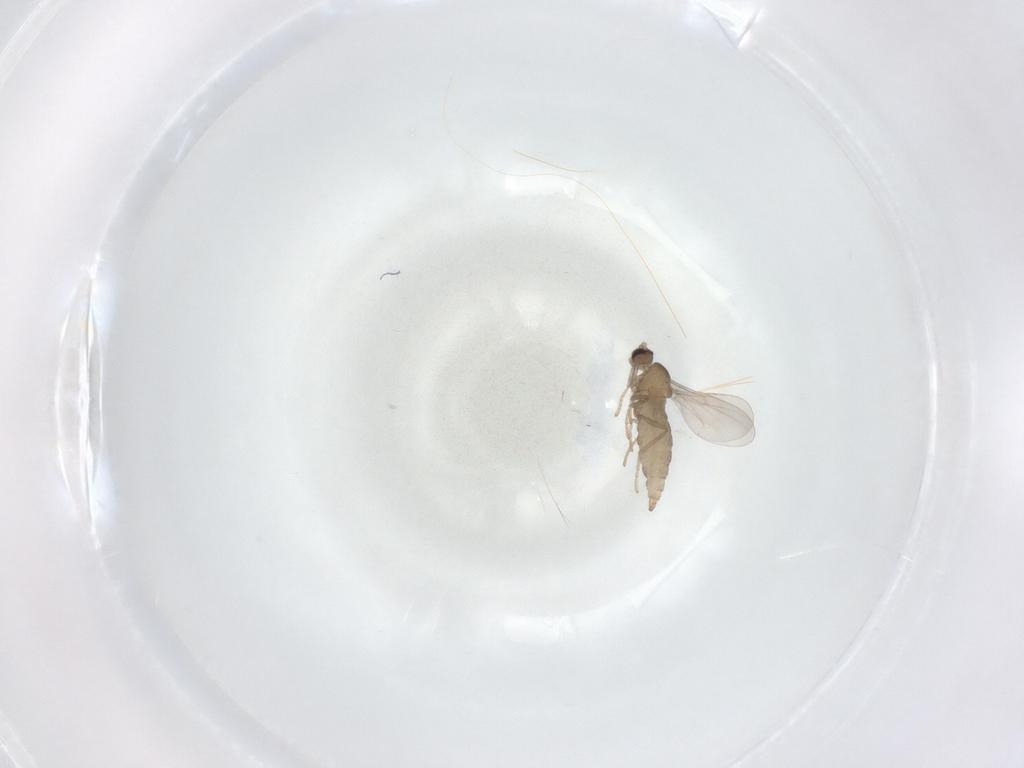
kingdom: Animalia
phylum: Arthropoda
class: Insecta
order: Diptera
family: Cecidomyiidae
